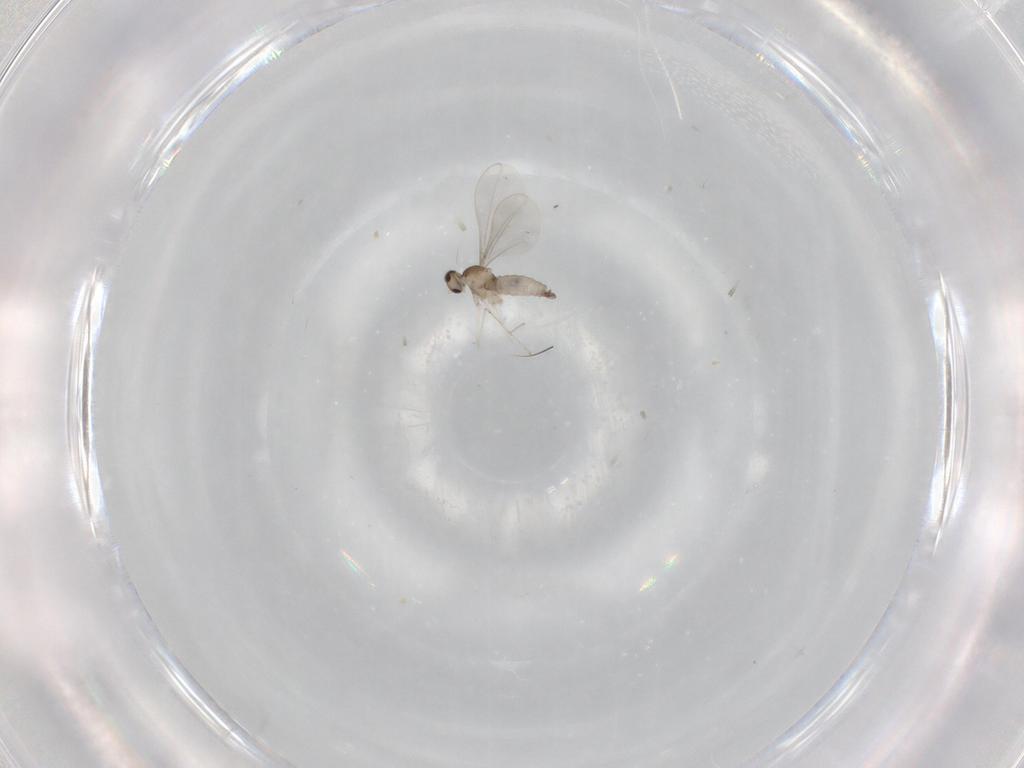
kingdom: Animalia
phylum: Arthropoda
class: Insecta
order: Diptera
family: Cecidomyiidae
